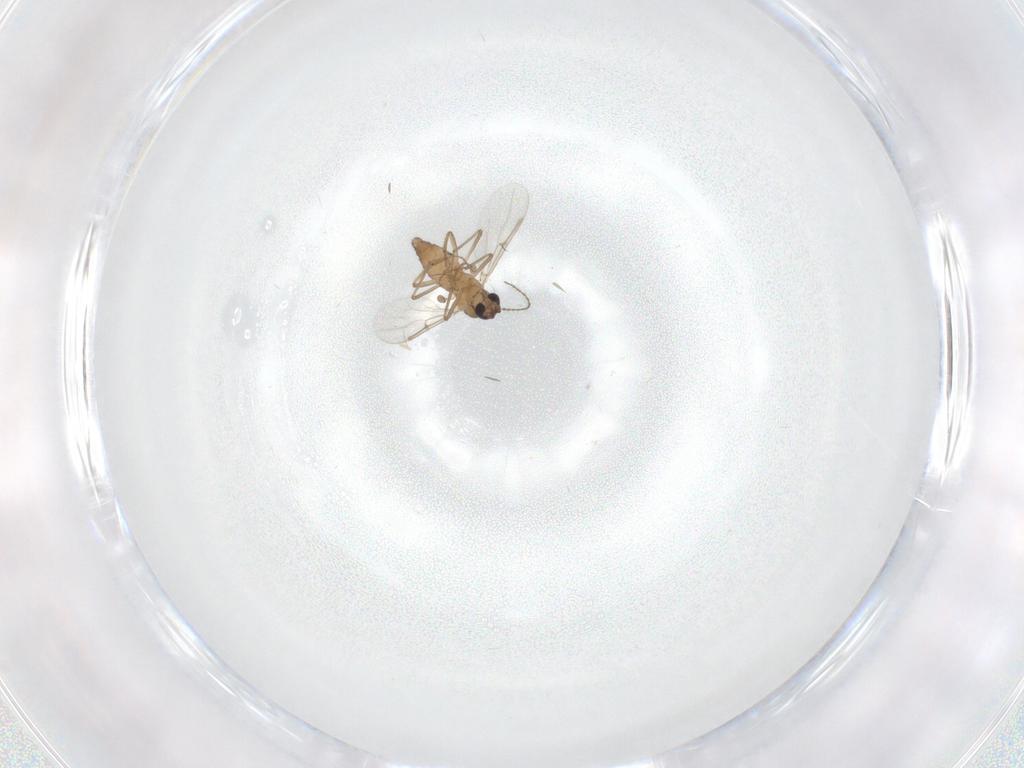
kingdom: Animalia
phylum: Arthropoda
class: Insecta
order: Diptera
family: Ceratopogonidae
